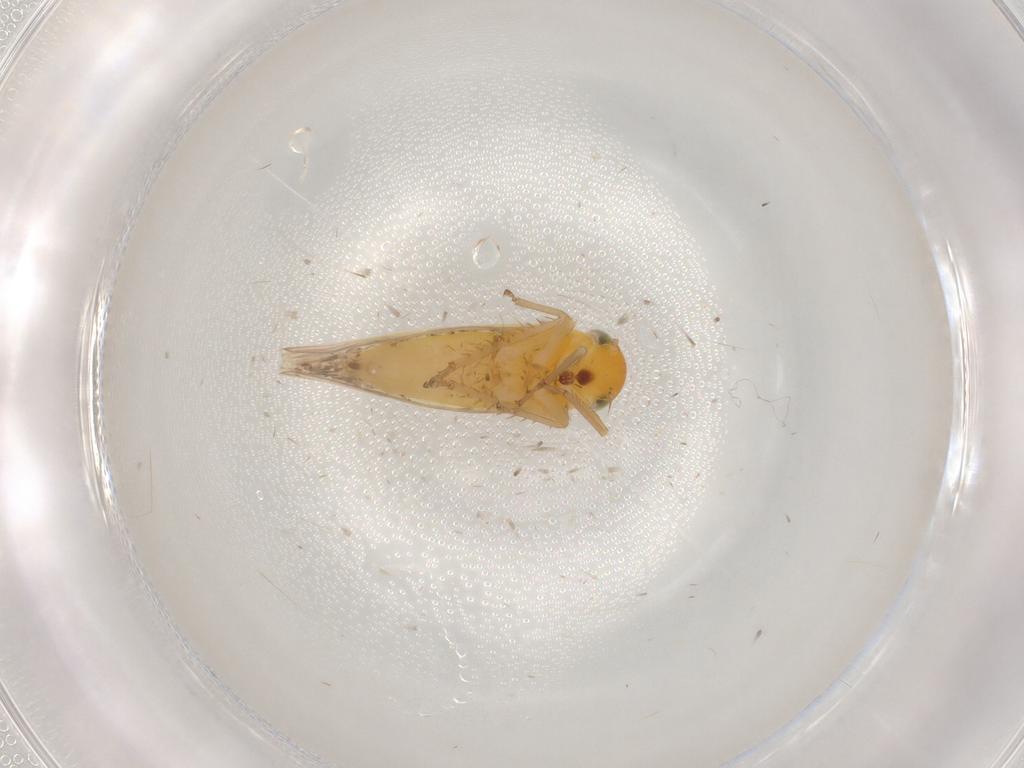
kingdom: Animalia
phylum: Arthropoda
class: Insecta
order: Hemiptera
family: Cicadellidae
